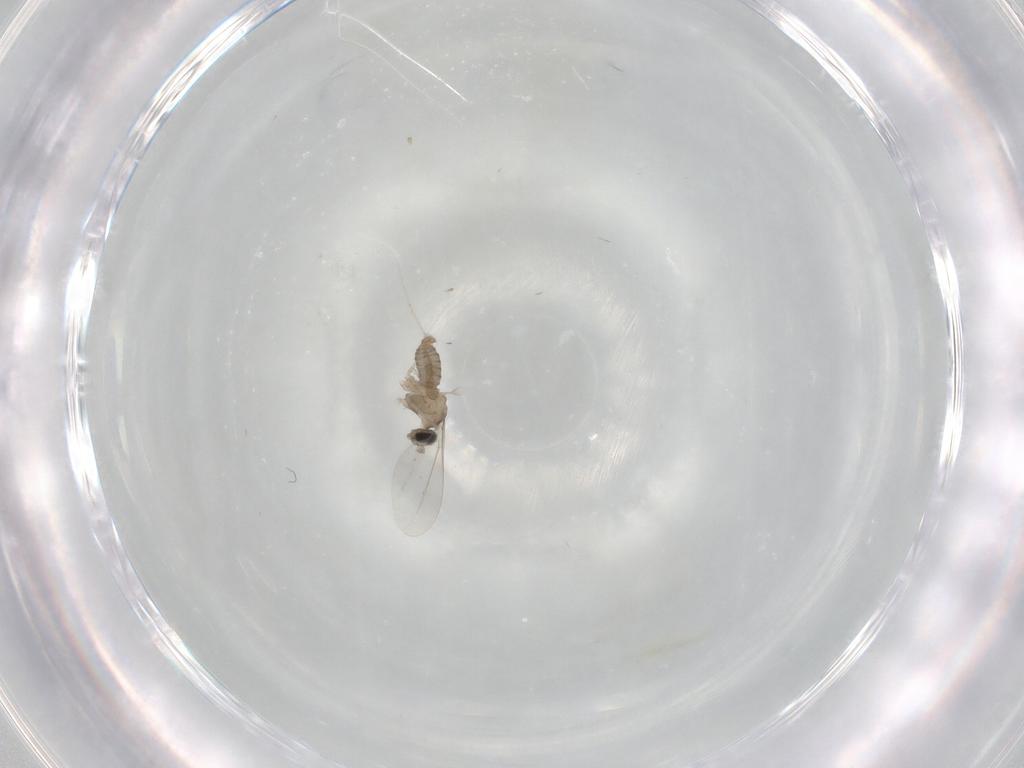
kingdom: Animalia
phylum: Arthropoda
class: Insecta
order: Diptera
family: Cecidomyiidae
